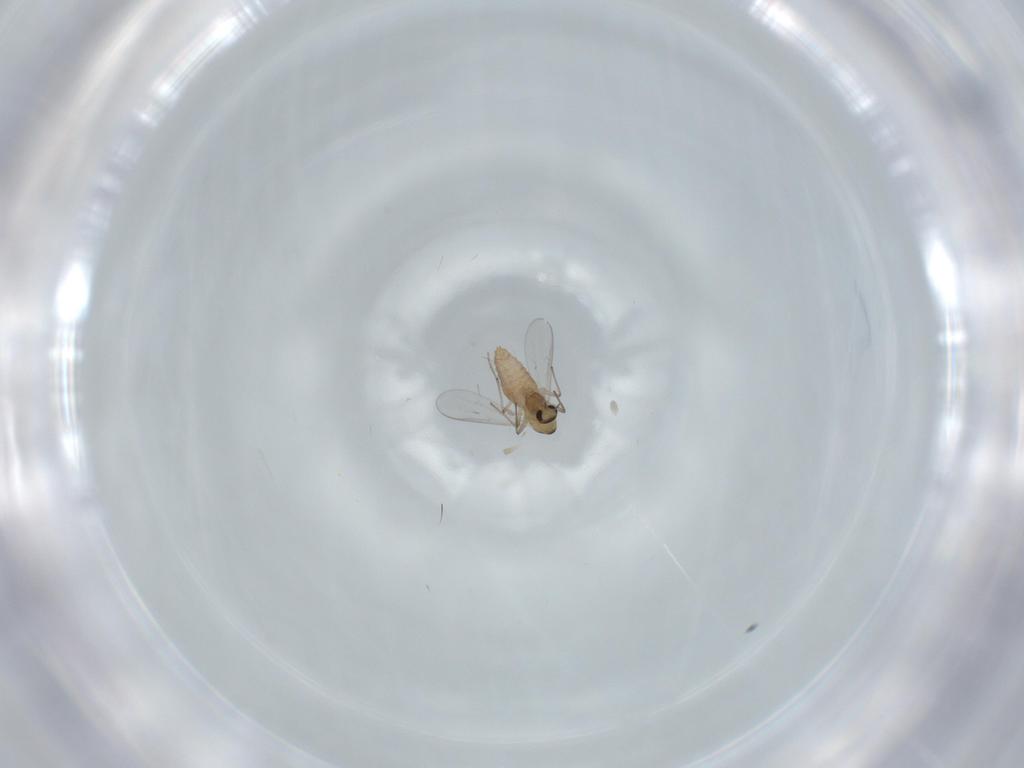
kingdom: Animalia
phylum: Arthropoda
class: Insecta
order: Diptera
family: Chironomidae
